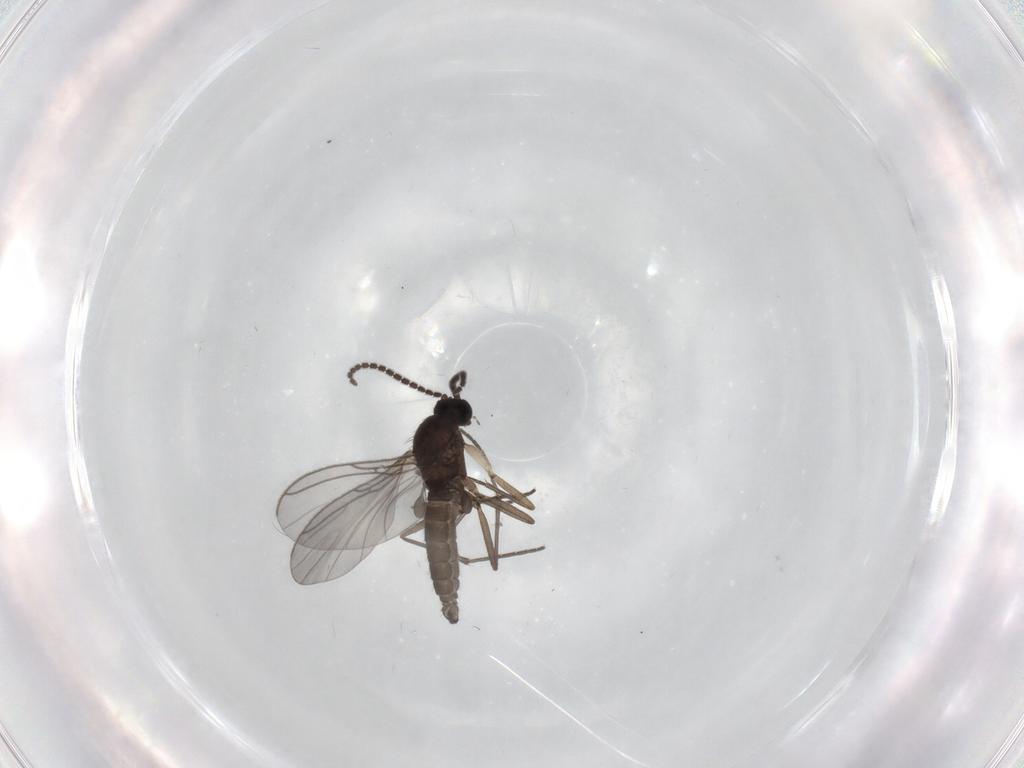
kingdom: Animalia
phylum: Arthropoda
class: Insecta
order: Diptera
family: Sciaridae
